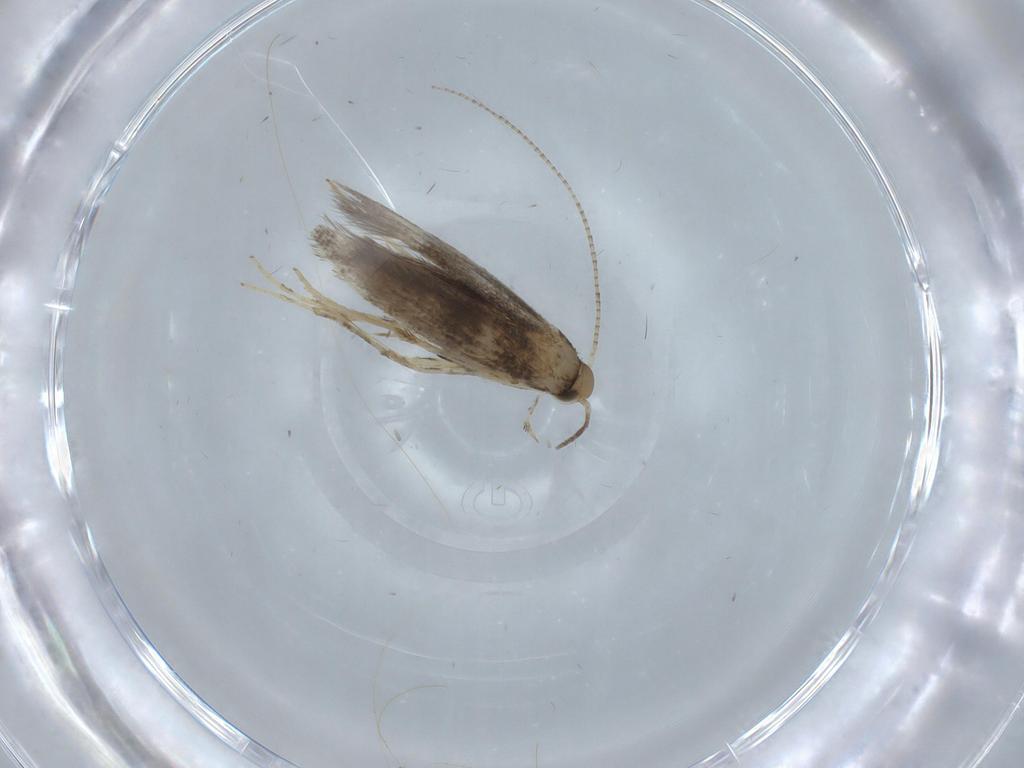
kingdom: Animalia
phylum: Arthropoda
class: Insecta
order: Lepidoptera
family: Gracillariidae
